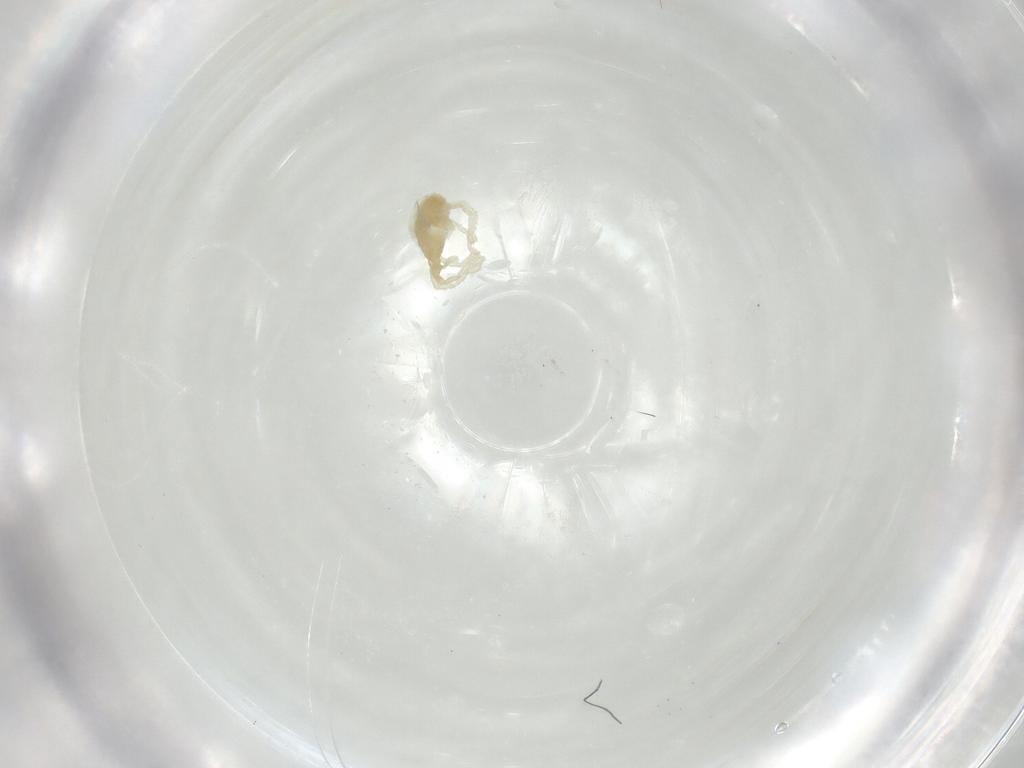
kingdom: Animalia
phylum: Arthropoda
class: Arachnida
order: Trombidiformes
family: Erythraeidae
